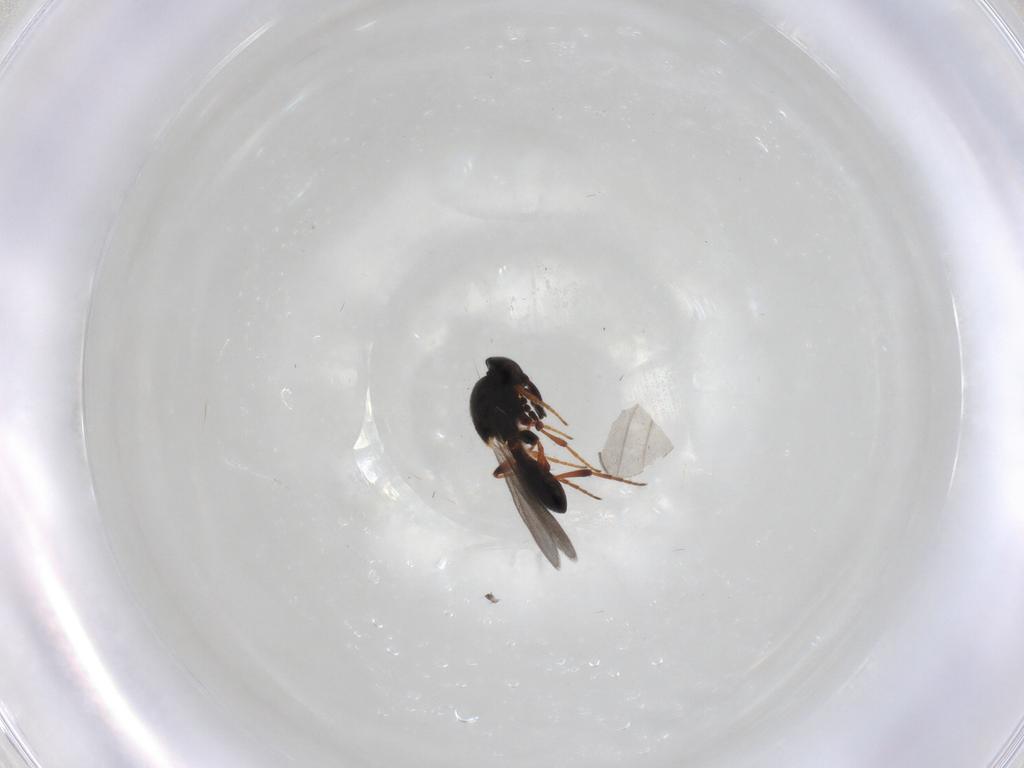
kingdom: Animalia
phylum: Arthropoda
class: Insecta
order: Hymenoptera
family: Platygastridae
